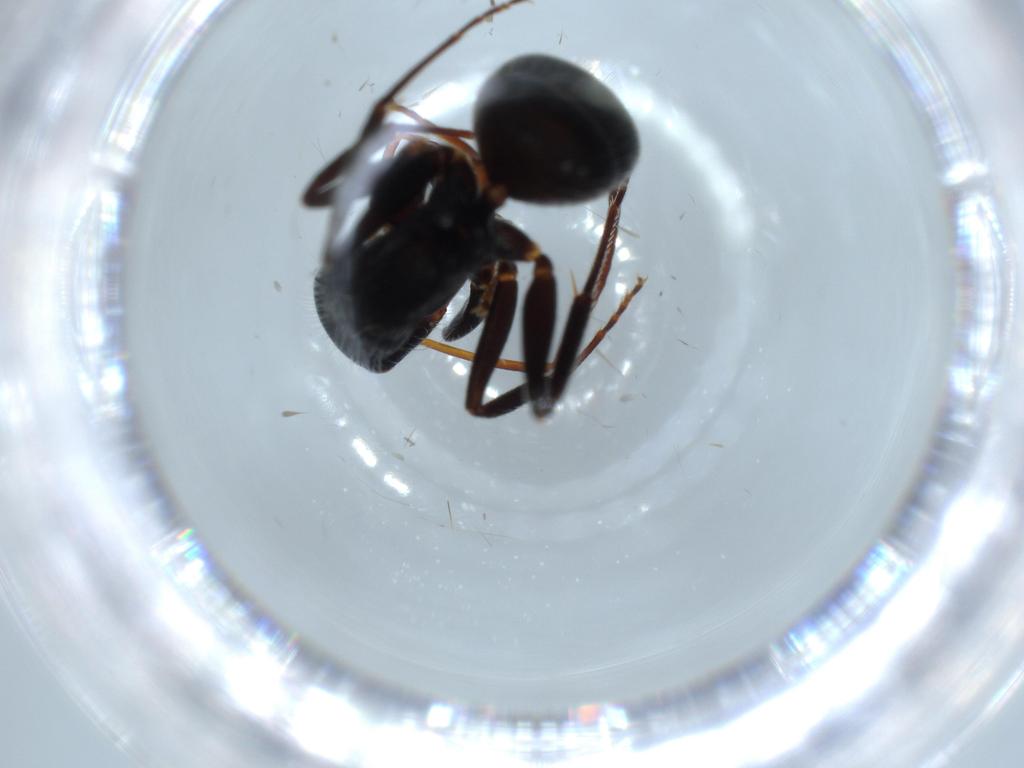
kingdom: Animalia
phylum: Arthropoda
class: Insecta
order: Hymenoptera
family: Formicidae
